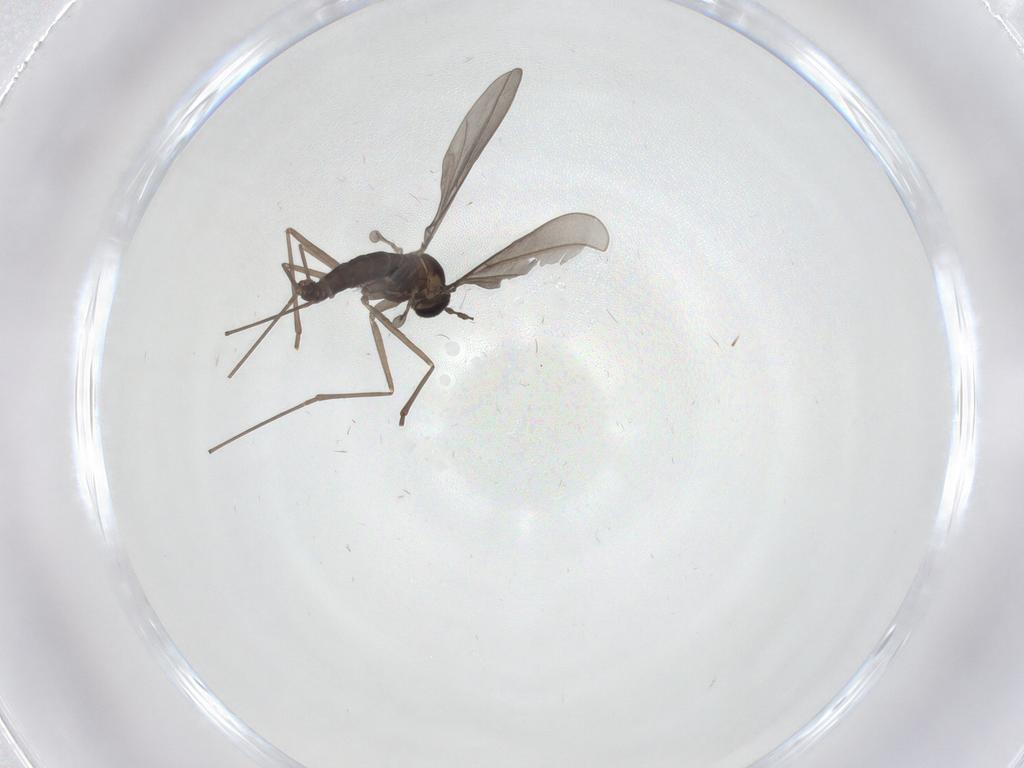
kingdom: Animalia
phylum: Arthropoda
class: Insecta
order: Diptera
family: Cecidomyiidae
